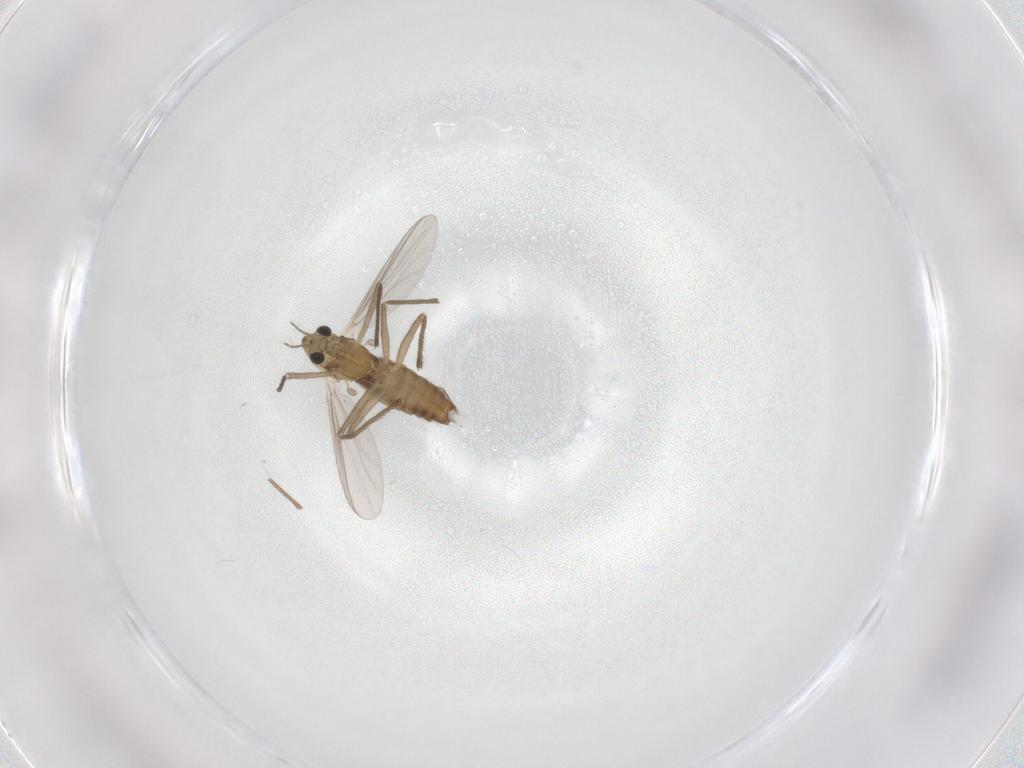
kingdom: Animalia
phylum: Arthropoda
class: Insecta
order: Diptera
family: Chironomidae
